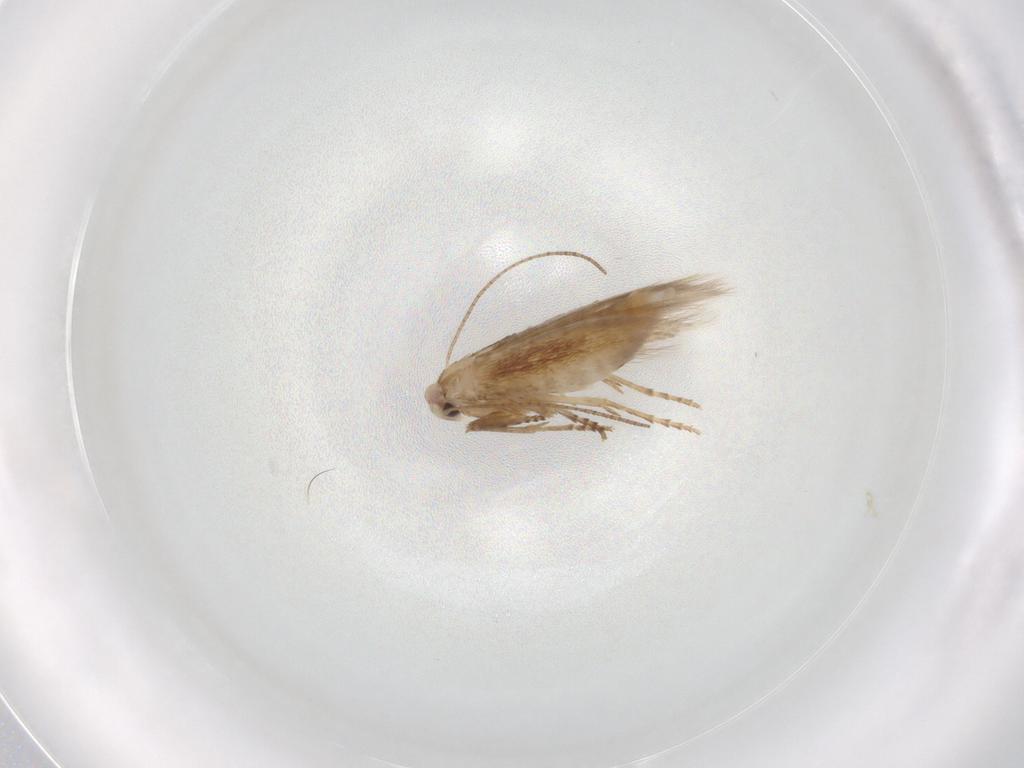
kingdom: Animalia
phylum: Arthropoda
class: Insecta
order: Lepidoptera
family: Bucculatricidae
